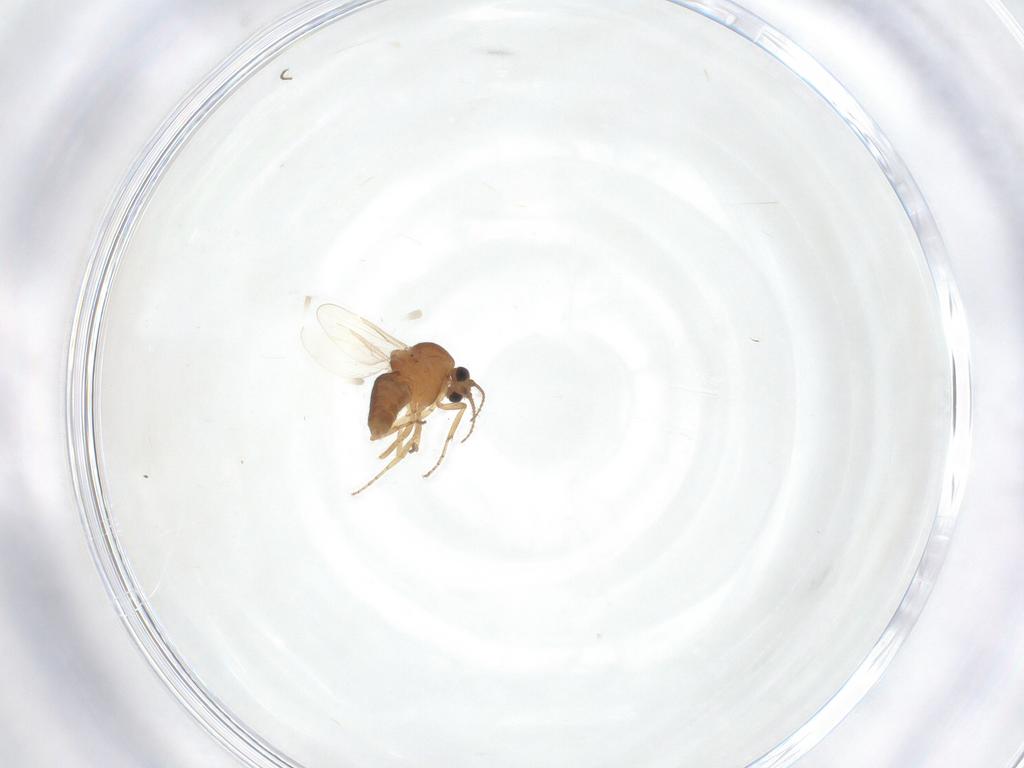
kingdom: Animalia
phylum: Arthropoda
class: Insecta
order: Diptera
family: Ceratopogonidae
